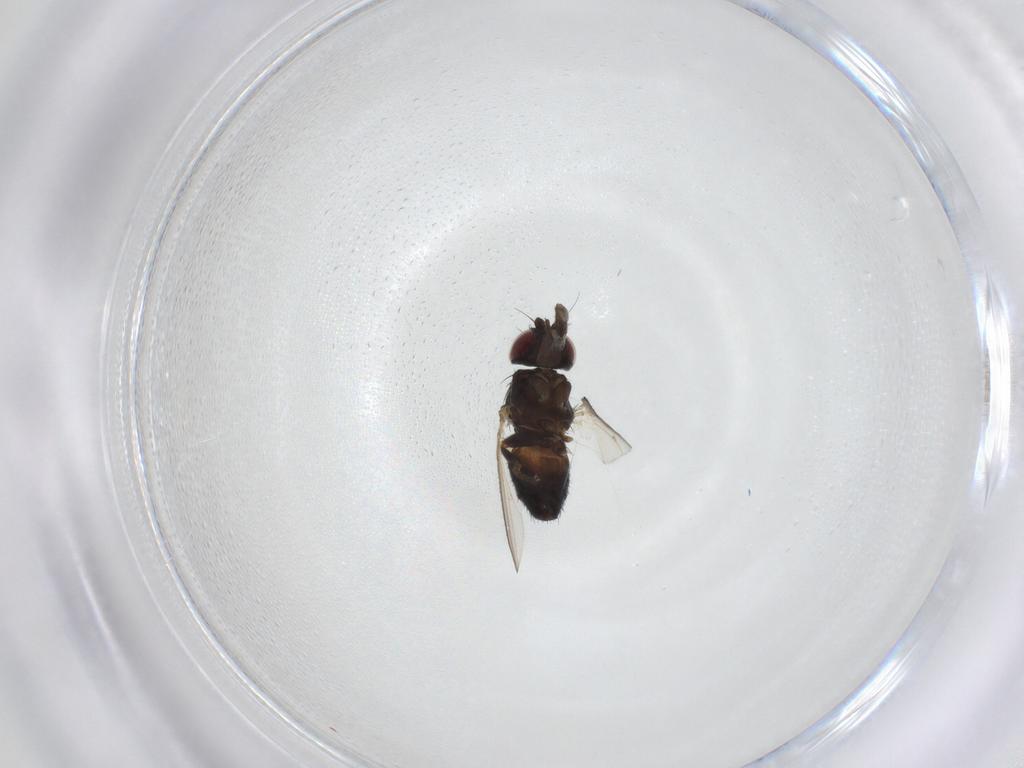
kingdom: Animalia
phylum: Arthropoda
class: Insecta
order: Diptera
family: Milichiidae
